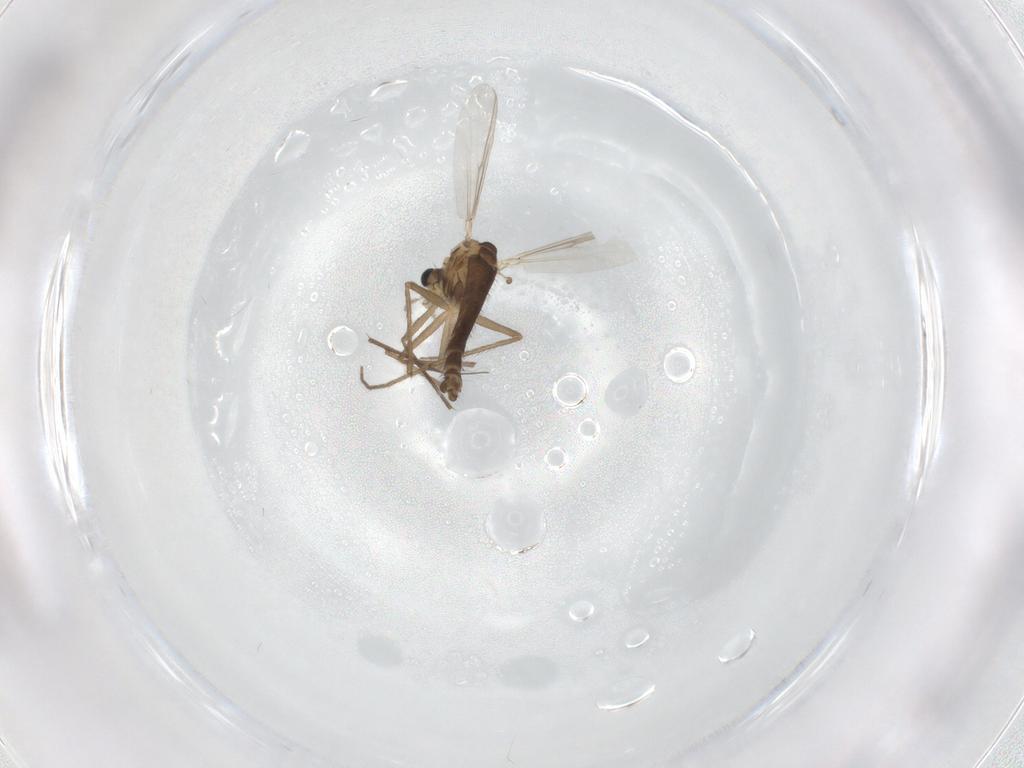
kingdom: Animalia
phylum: Arthropoda
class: Insecta
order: Diptera
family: Chironomidae
